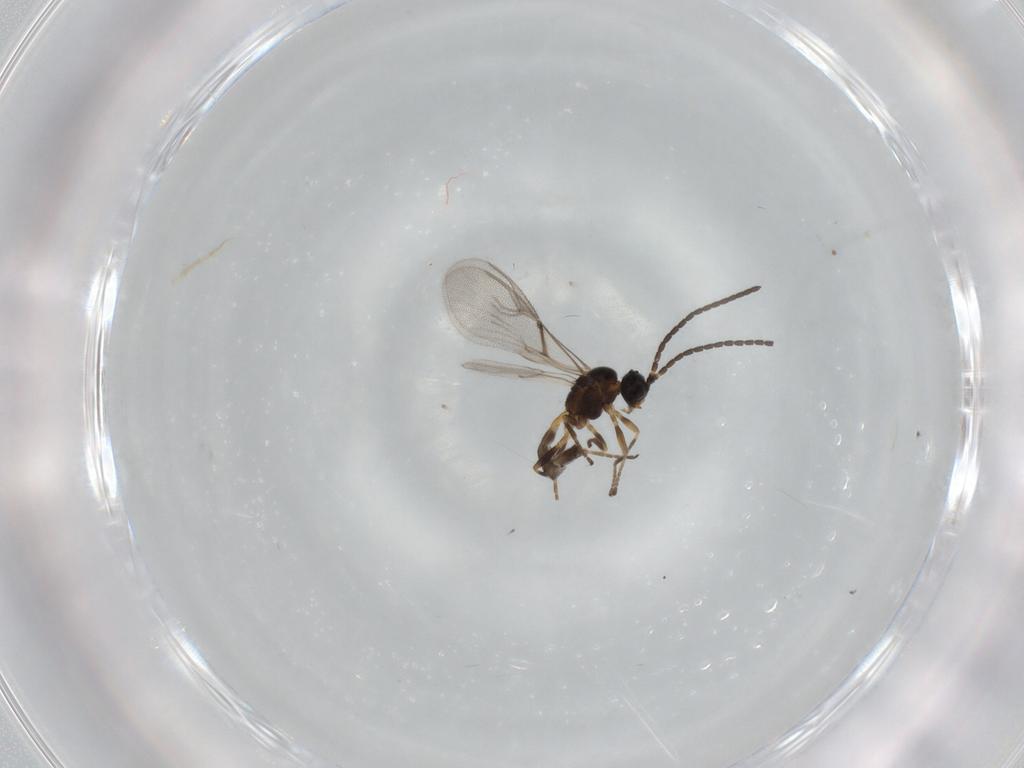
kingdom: Animalia
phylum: Arthropoda
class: Insecta
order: Hymenoptera
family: Braconidae
